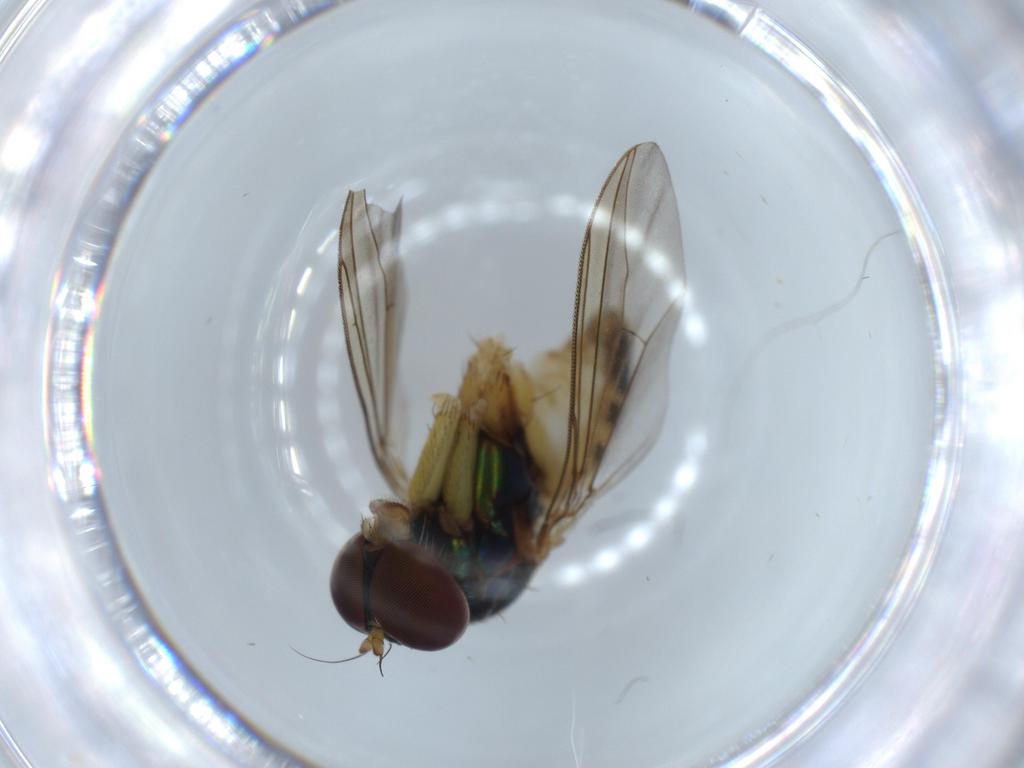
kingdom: Animalia
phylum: Arthropoda
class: Insecta
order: Diptera
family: Dolichopodidae
